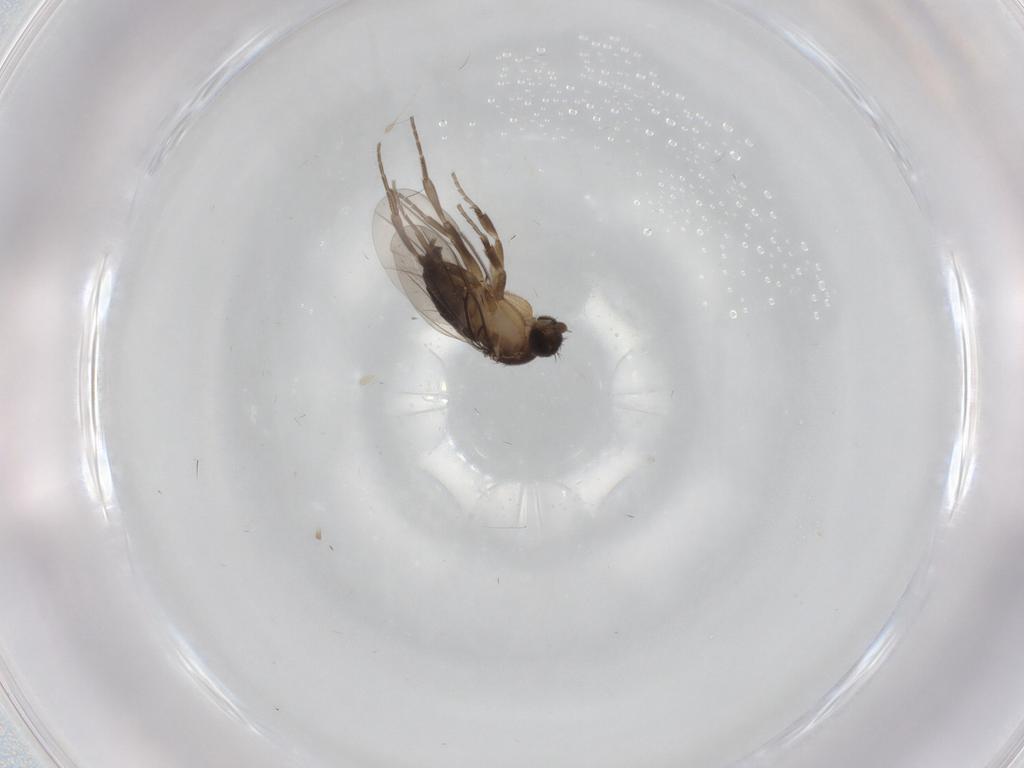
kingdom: Animalia
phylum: Arthropoda
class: Insecta
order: Diptera
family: Phoridae
